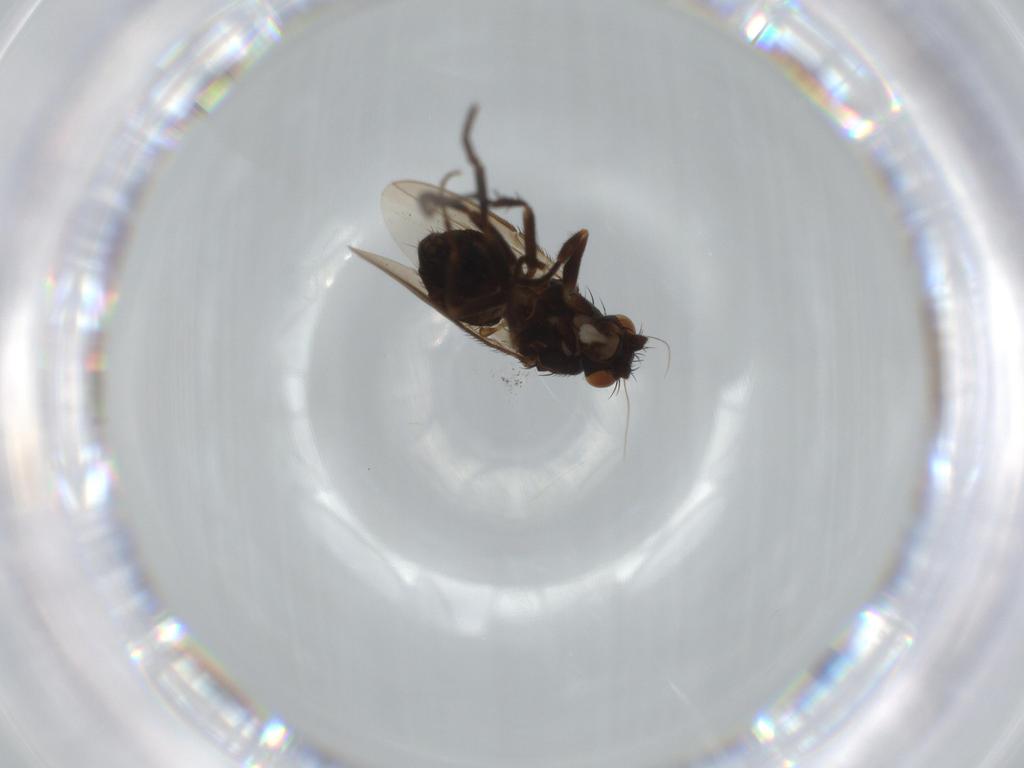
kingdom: Animalia
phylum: Arthropoda
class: Insecta
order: Diptera
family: Sphaeroceridae
